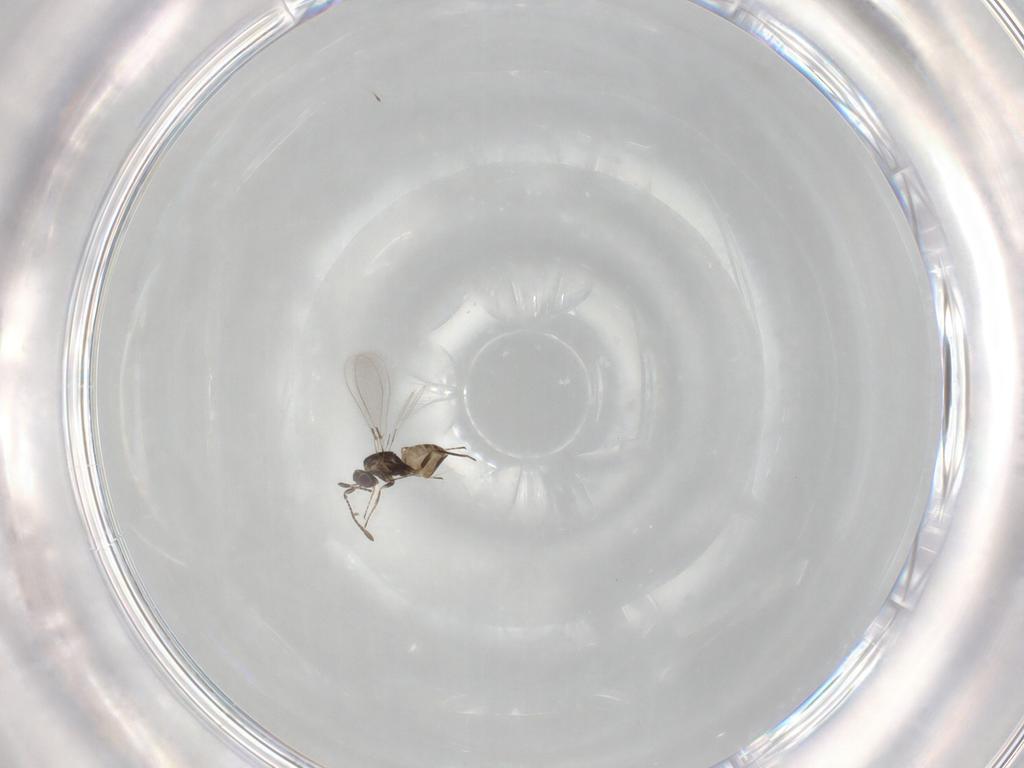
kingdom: Animalia
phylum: Arthropoda
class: Insecta
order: Hymenoptera
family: Mymaridae
